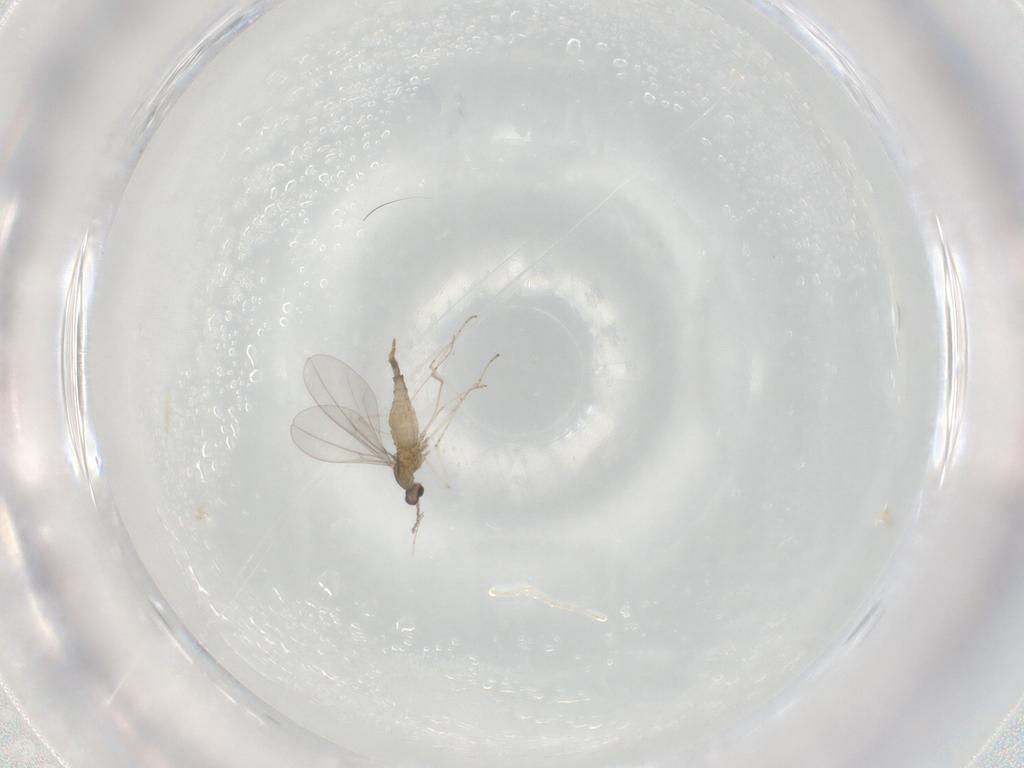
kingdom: Animalia
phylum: Arthropoda
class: Insecta
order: Diptera
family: Cecidomyiidae
